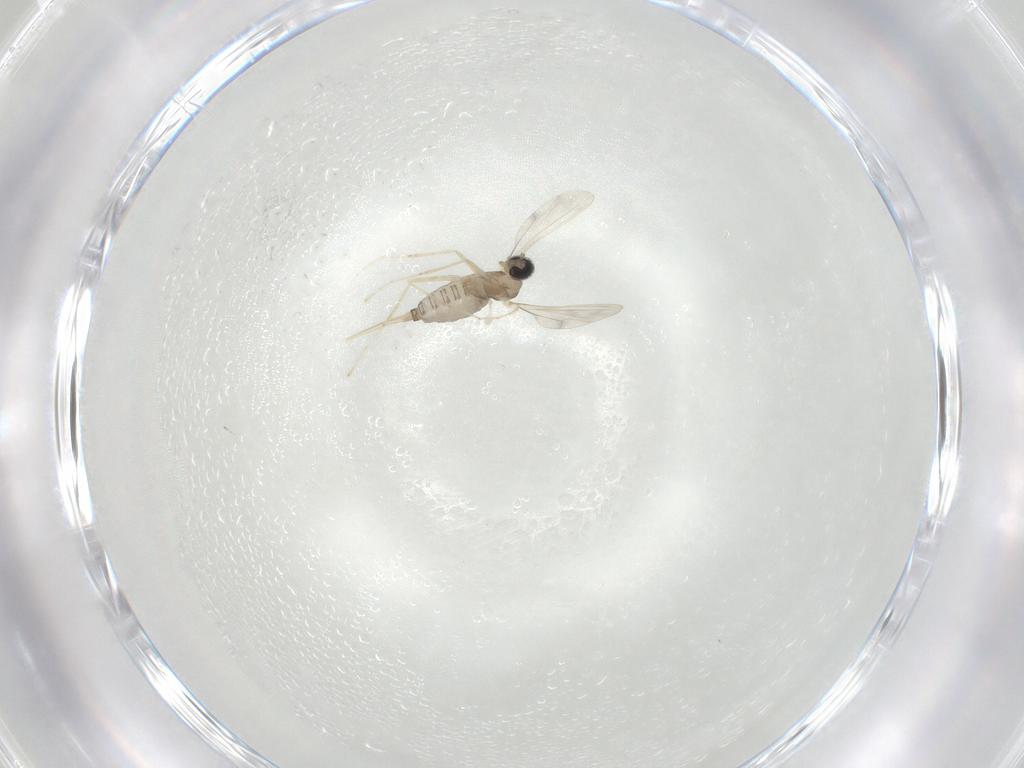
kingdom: Animalia
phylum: Arthropoda
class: Insecta
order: Diptera
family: Cecidomyiidae
